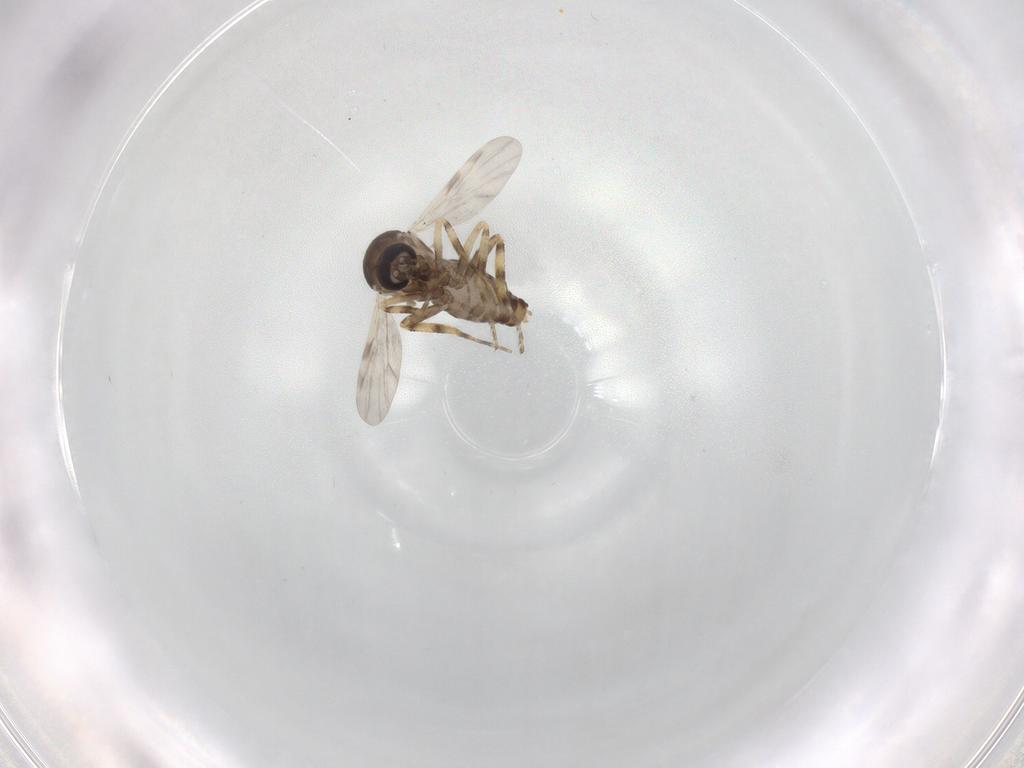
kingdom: Animalia
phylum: Arthropoda
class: Insecta
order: Diptera
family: Ceratopogonidae
